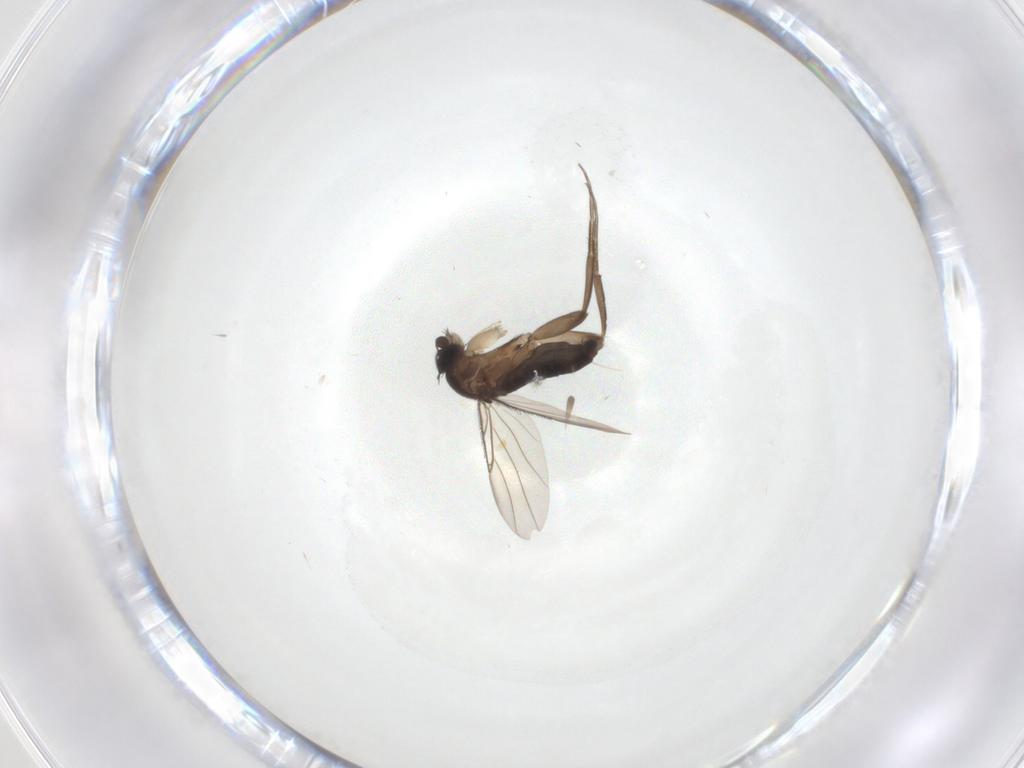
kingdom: Animalia
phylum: Arthropoda
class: Insecta
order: Diptera
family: Phoridae
